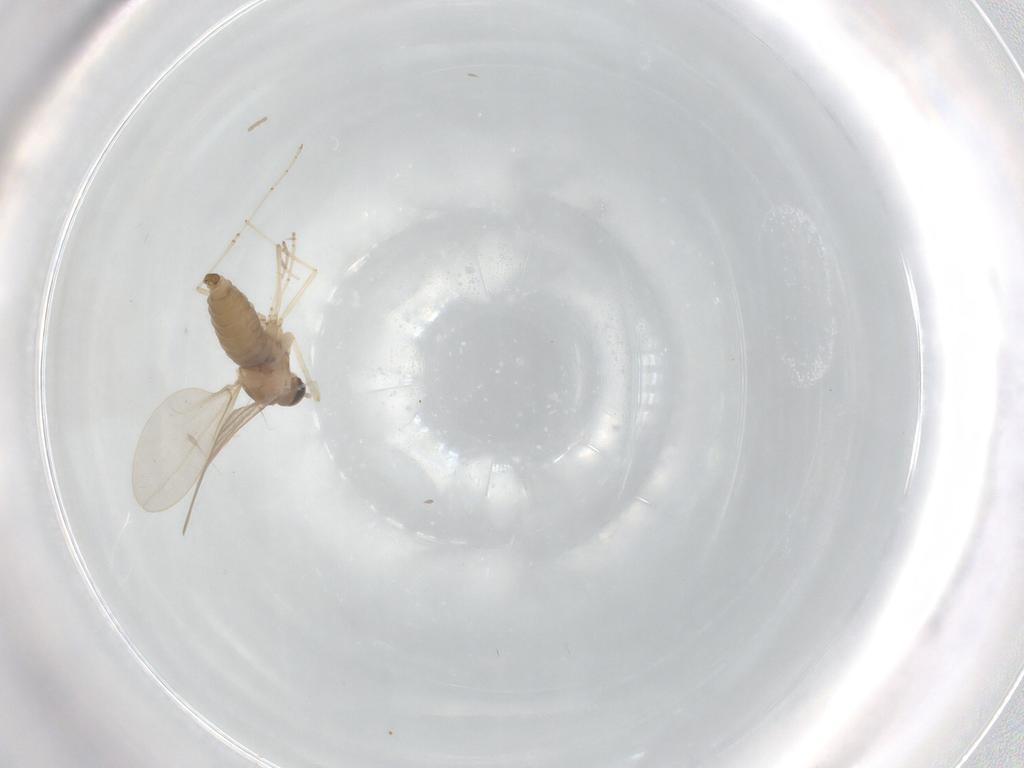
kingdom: Animalia
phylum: Arthropoda
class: Insecta
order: Diptera
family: Cecidomyiidae
